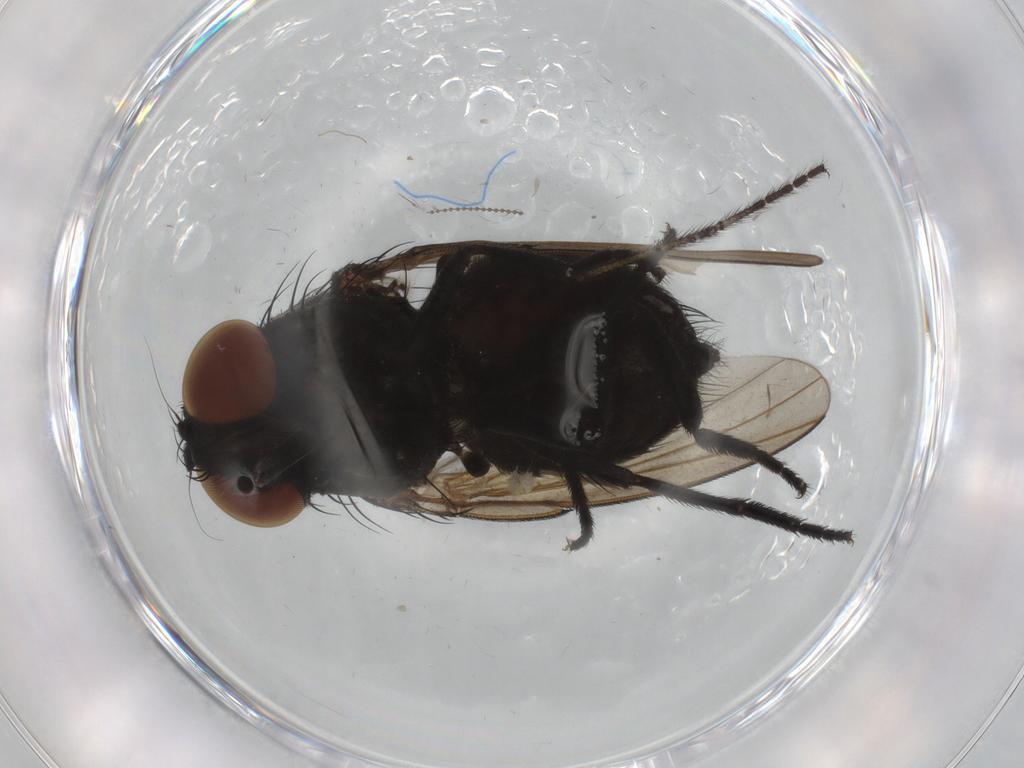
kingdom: Animalia
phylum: Arthropoda
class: Insecta
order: Diptera
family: Milichiidae
